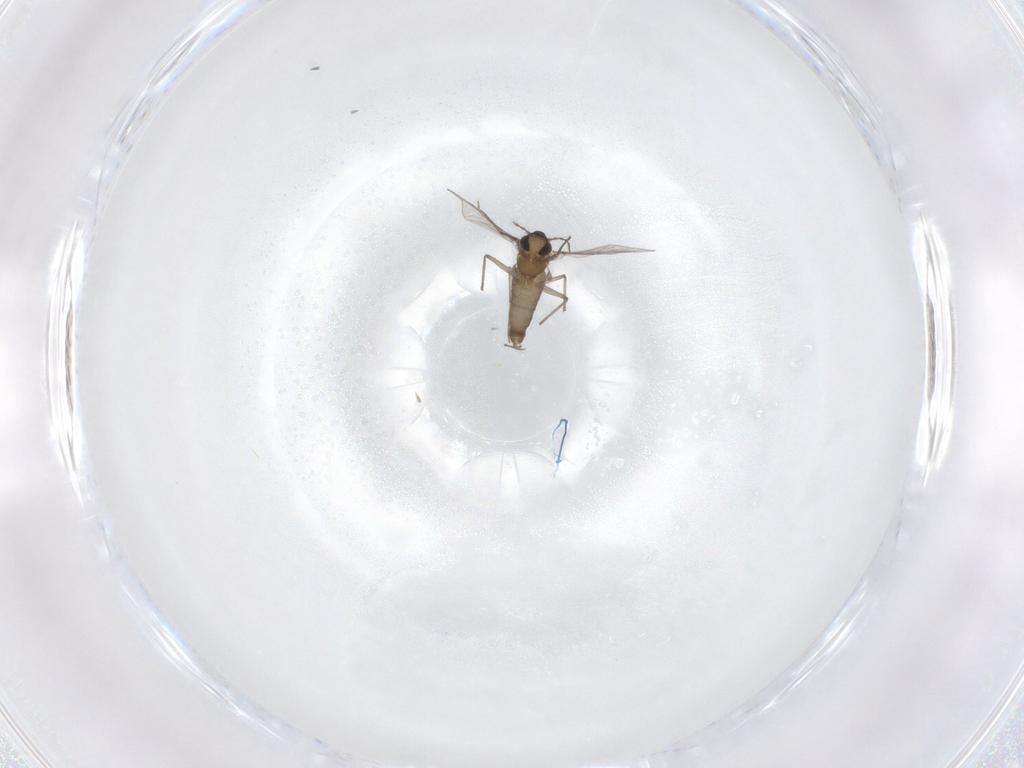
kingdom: Animalia
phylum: Arthropoda
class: Insecta
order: Diptera
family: Chironomidae
